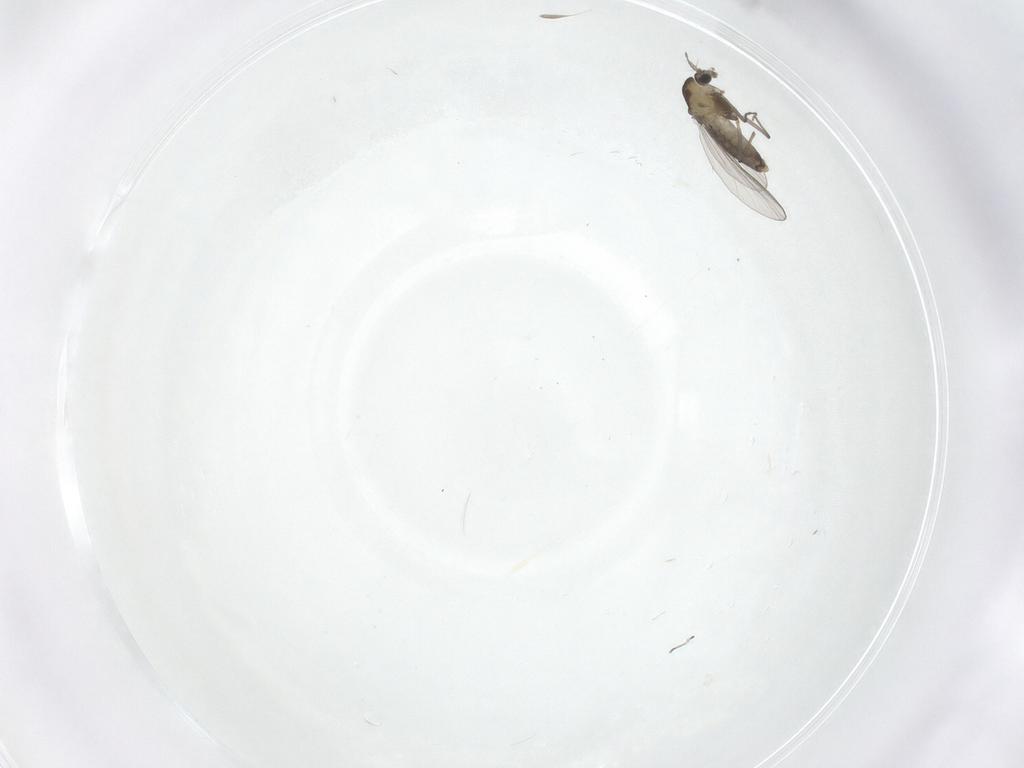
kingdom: Animalia
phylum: Arthropoda
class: Insecta
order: Diptera
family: Chironomidae
